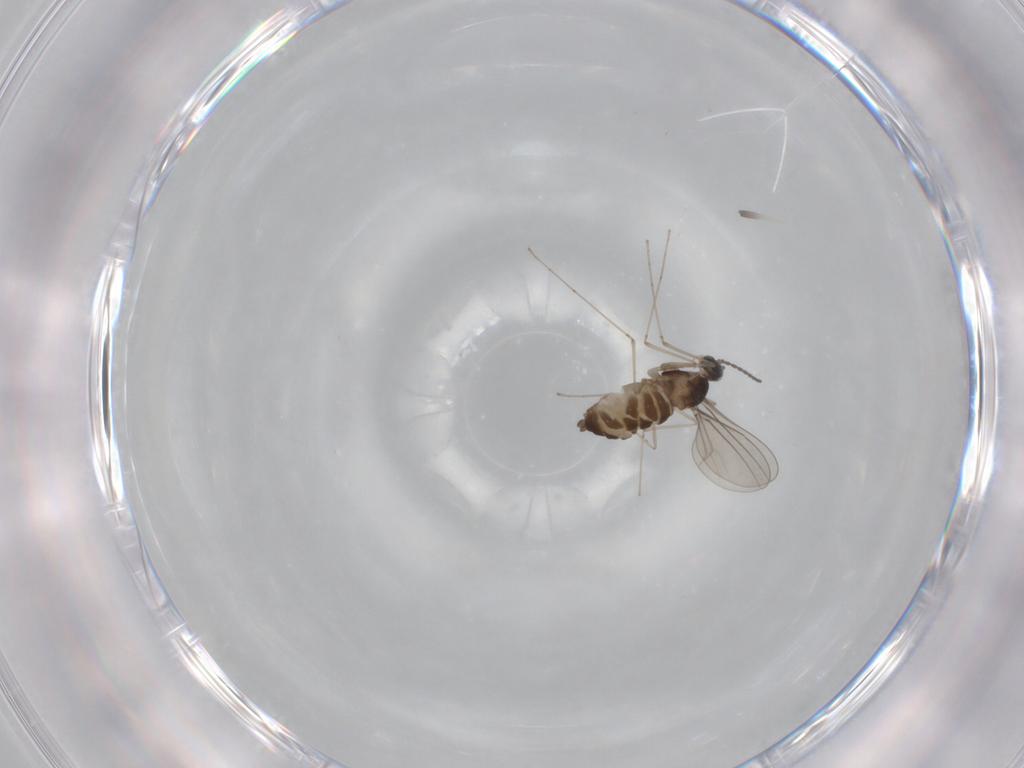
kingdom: Animalia
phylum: Arthropoda
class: Insecta
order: Diptera
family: Cecidomyiidae
